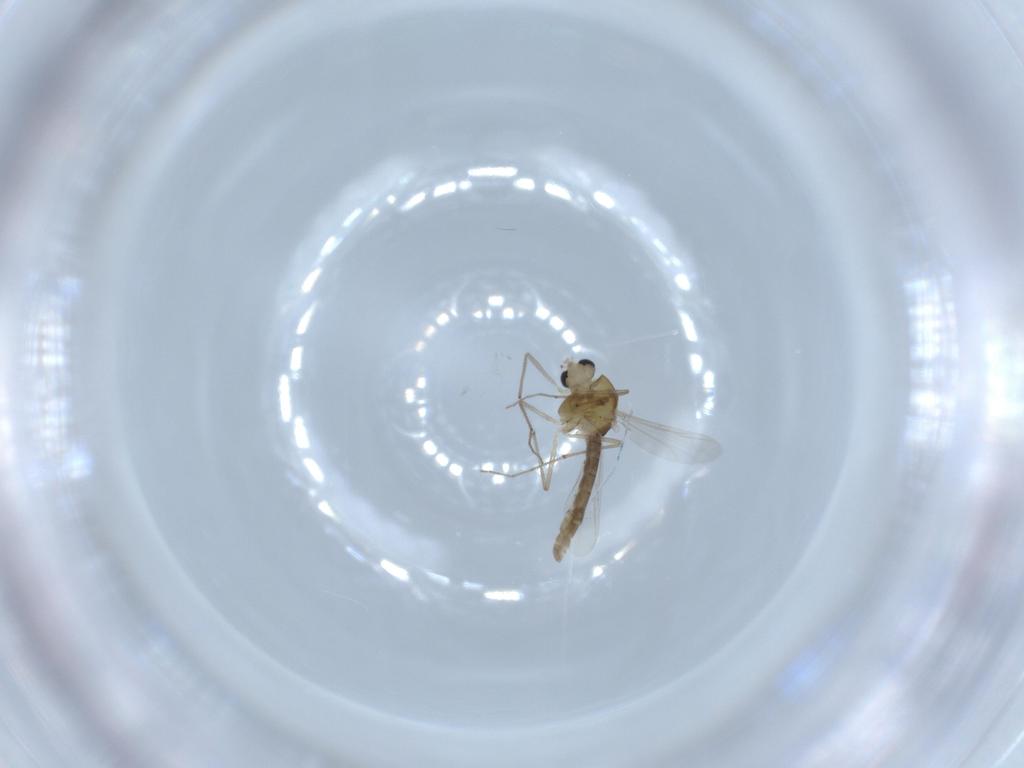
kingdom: Animalia
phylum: Arthropoda
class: Insecta
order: Diptera
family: Chironomidae
